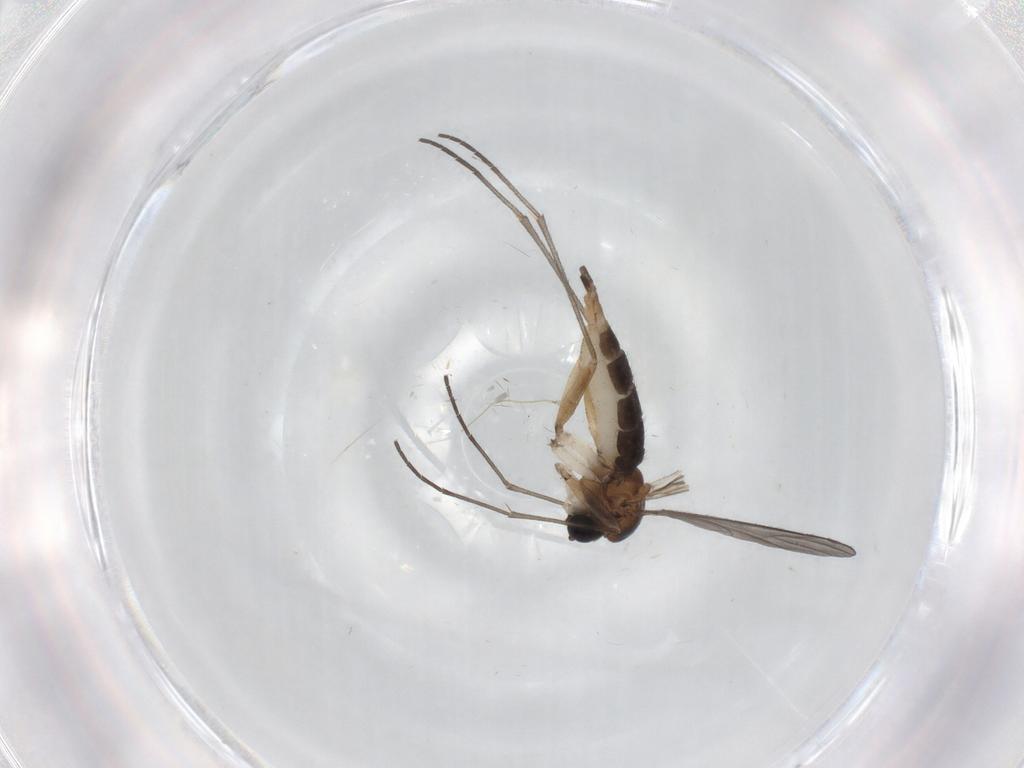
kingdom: Animalia
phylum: Arthropoda
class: Insecta
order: Diptera
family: Sciaridae
